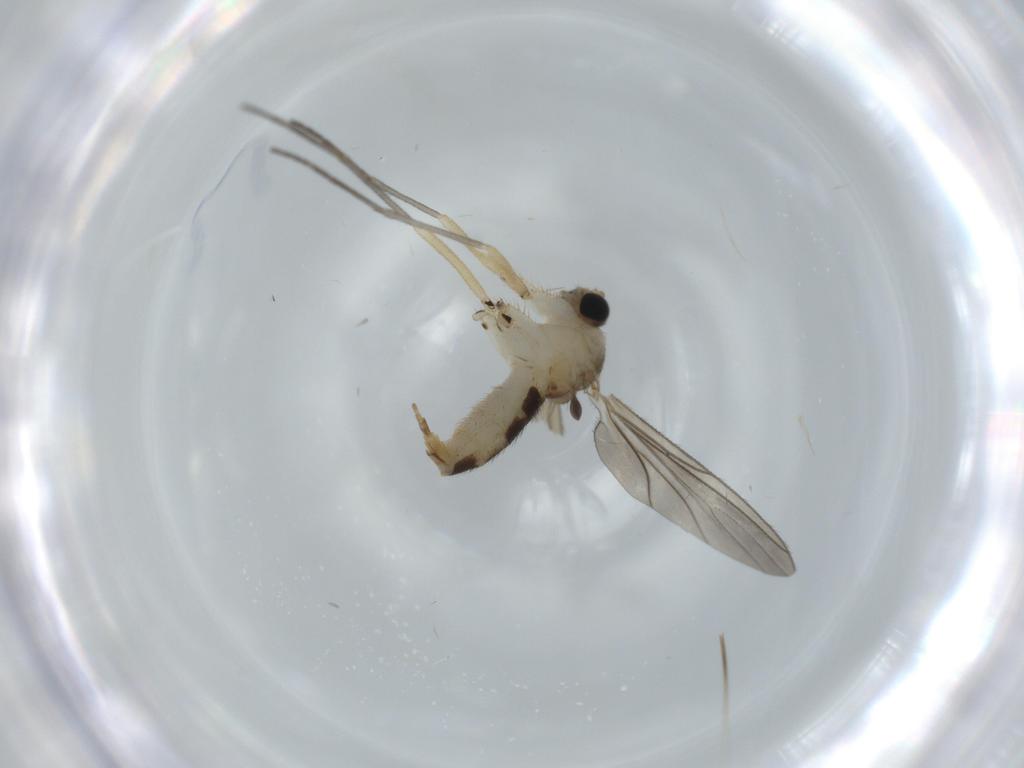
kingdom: Animalia
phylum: Arthropoda
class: Insecta
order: Diptera
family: Sciaridae
